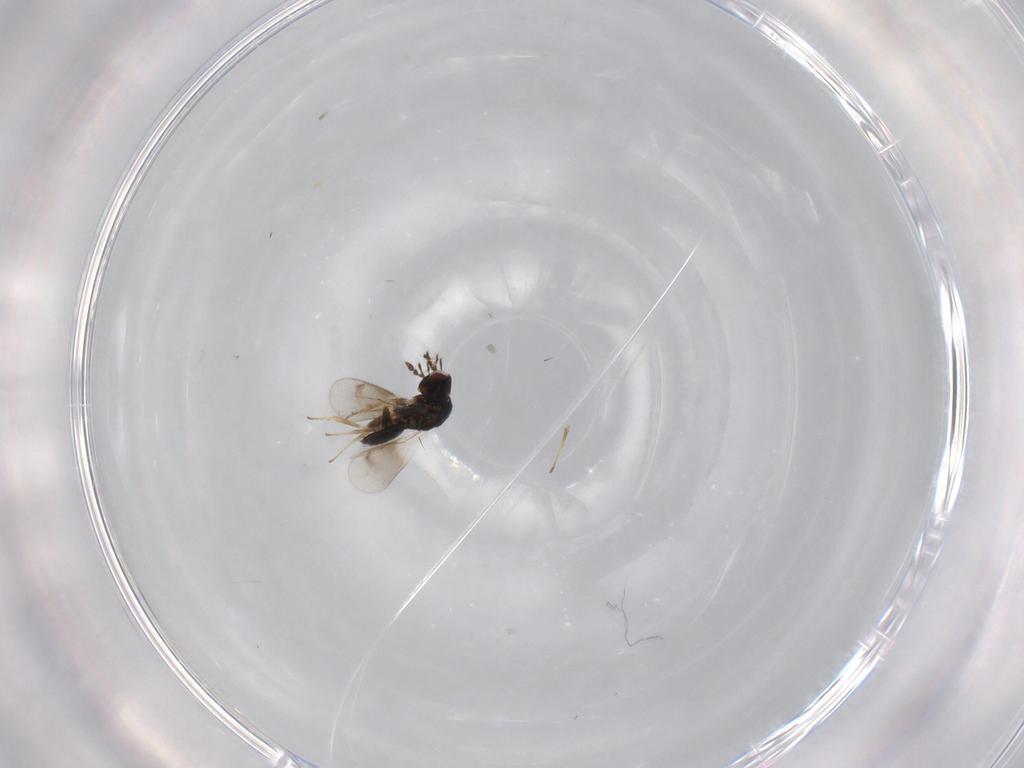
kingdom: Animalia
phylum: Arthropoda
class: Insecta
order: Hymenoptera
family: Eulophidae
